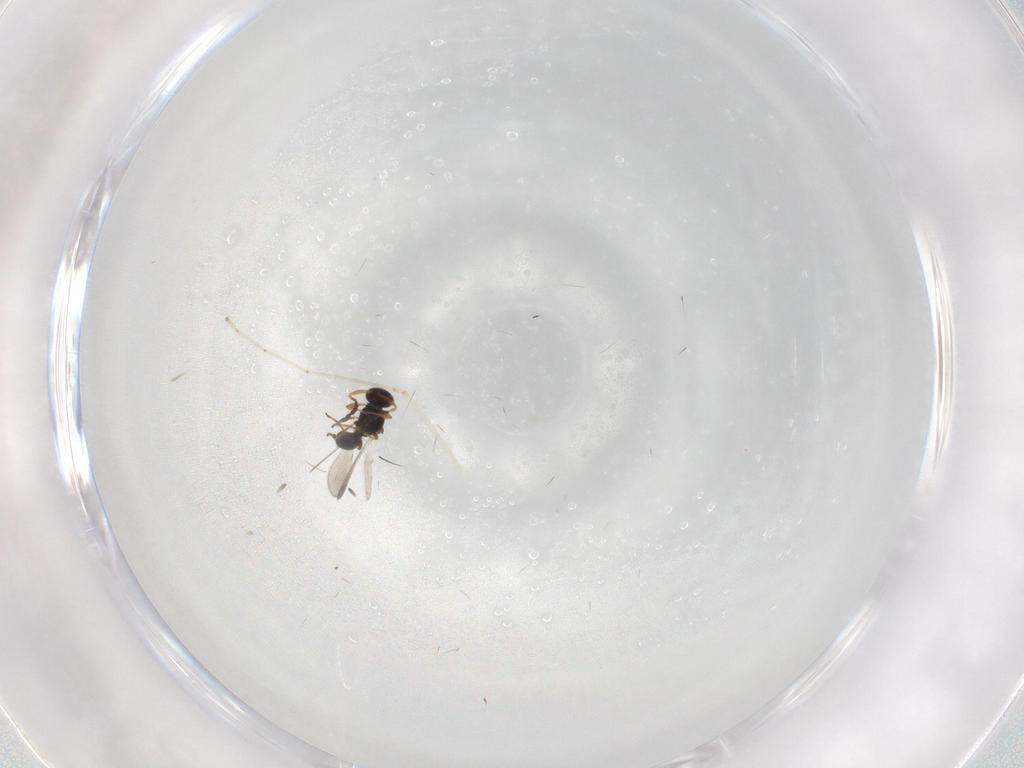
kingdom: Animalia
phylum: Arthropoda
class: Insecta
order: Hymenoptera
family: Platygastridae
